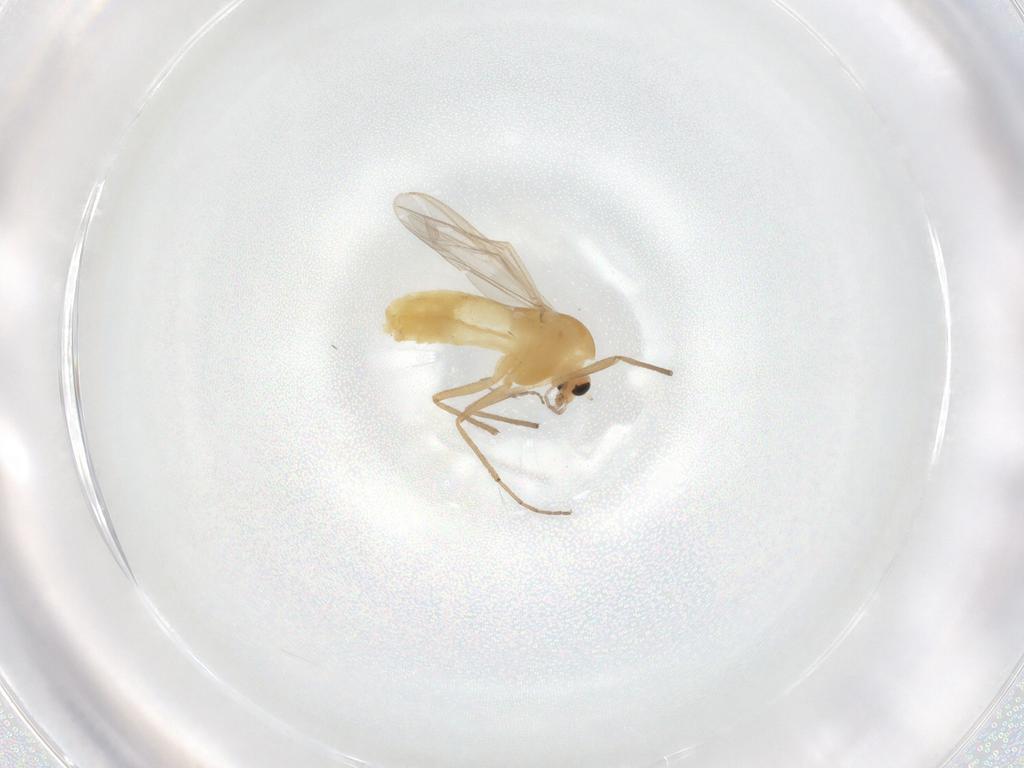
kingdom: Animalia
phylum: Arthropoda
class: Insecta
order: Diptera
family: Chironomidae
